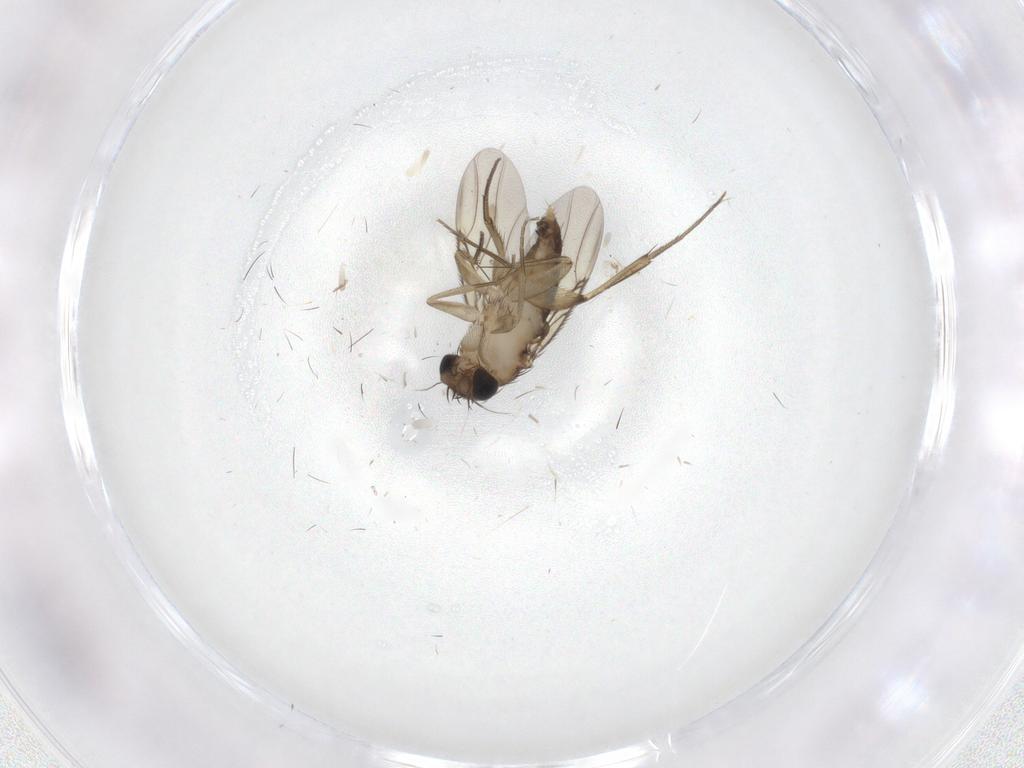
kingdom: Animalia
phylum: Arthropoda
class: Insecta
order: Diptera
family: Phoridae
